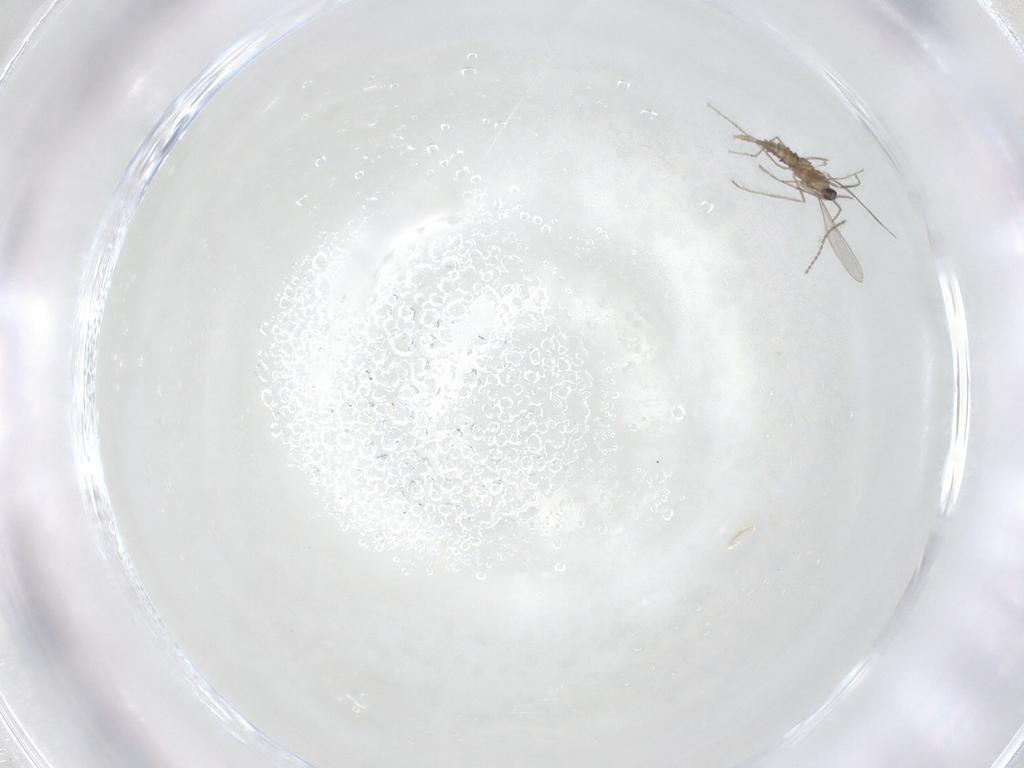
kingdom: Animalia
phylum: Arthropoda
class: Insecta
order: Diptera
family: Cecidomyiidae
